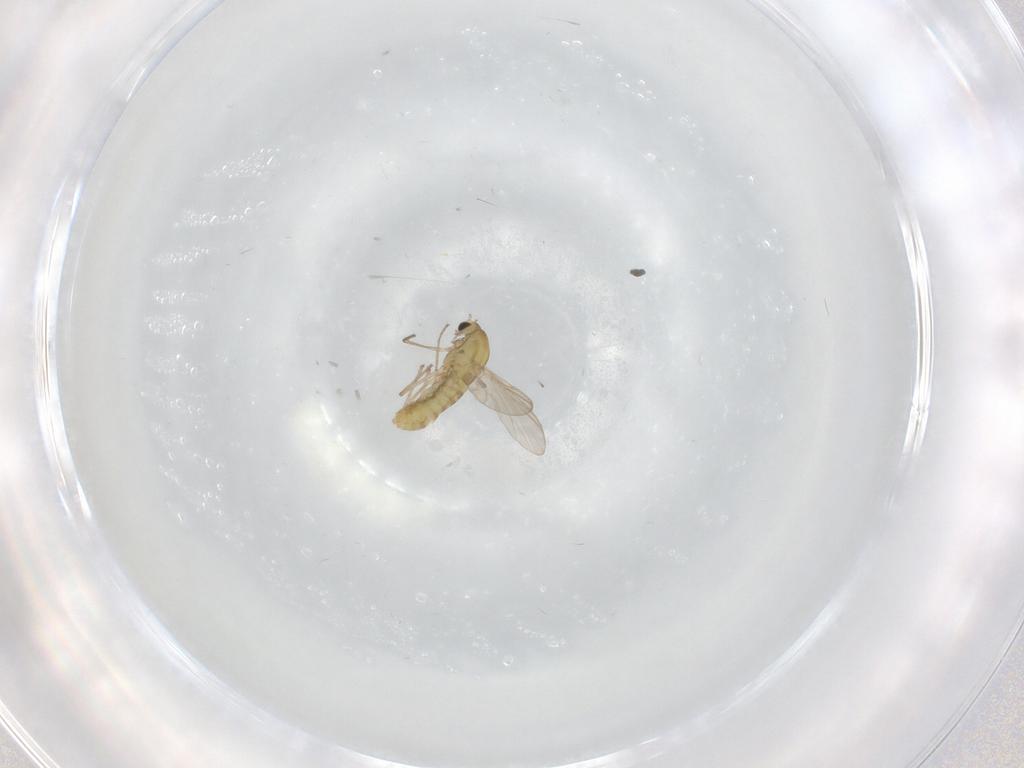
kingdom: Animalia
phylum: Arthropoda
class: Insecta
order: Diptera
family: Chironomidae
